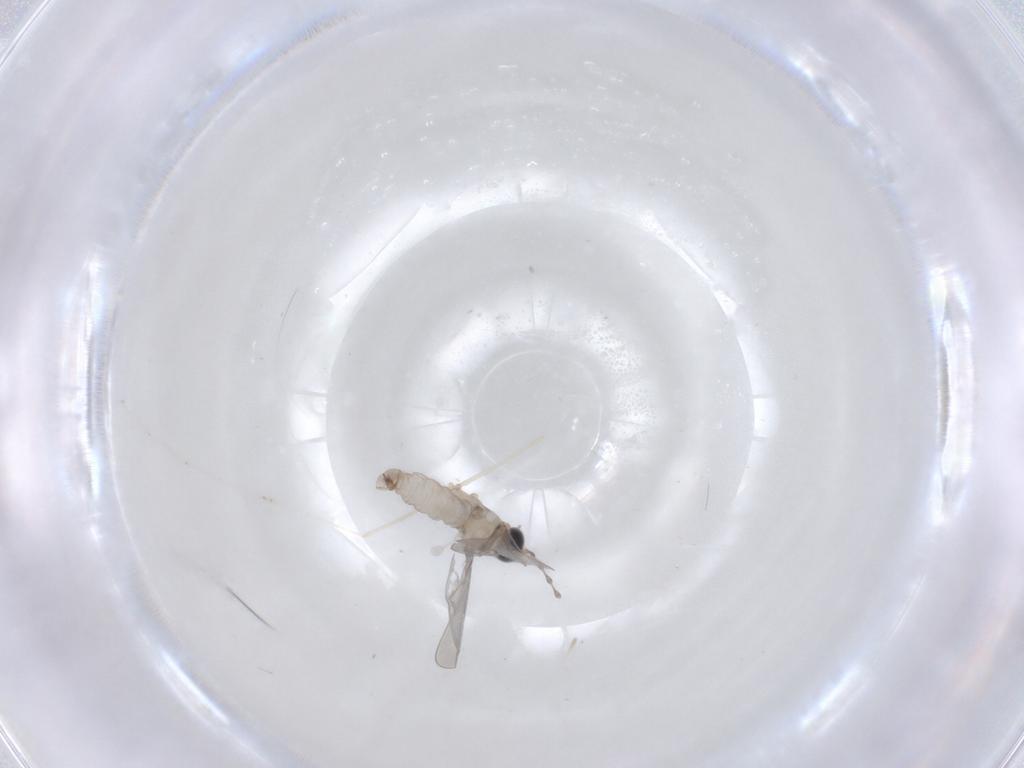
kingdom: Animalia
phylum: Arthropoda
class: Insecta
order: Diptera
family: Cecidomyiidae
